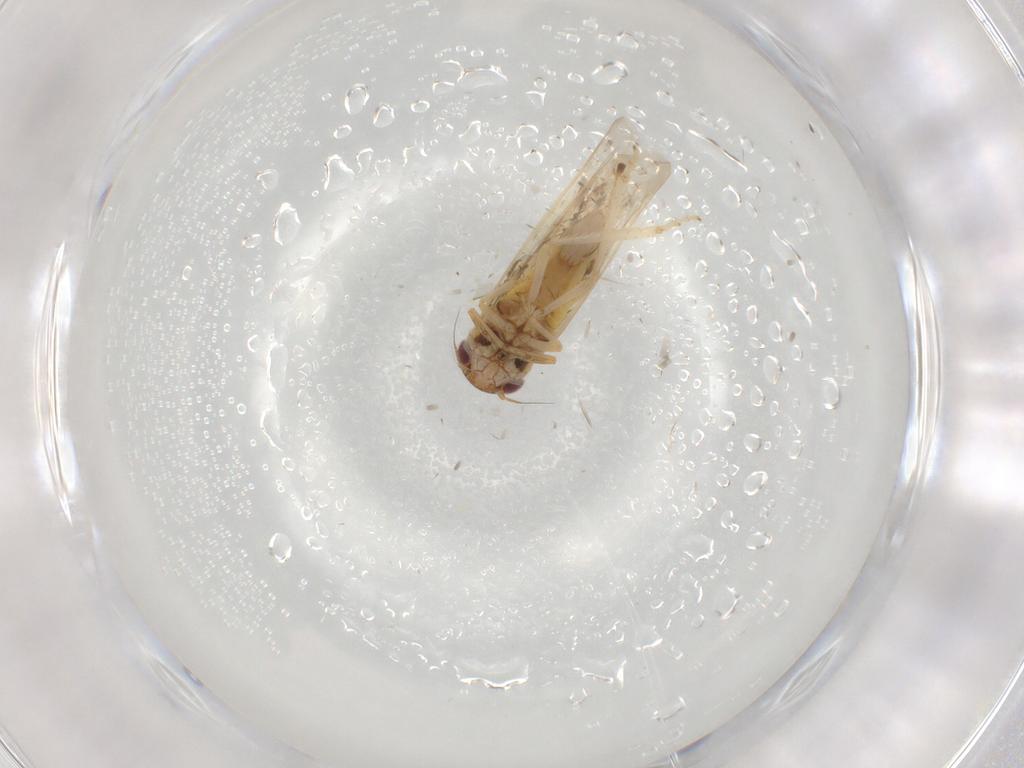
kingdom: Animalia
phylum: Arthropoda
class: Insecta
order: Hemiptera
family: Cicadellidae
